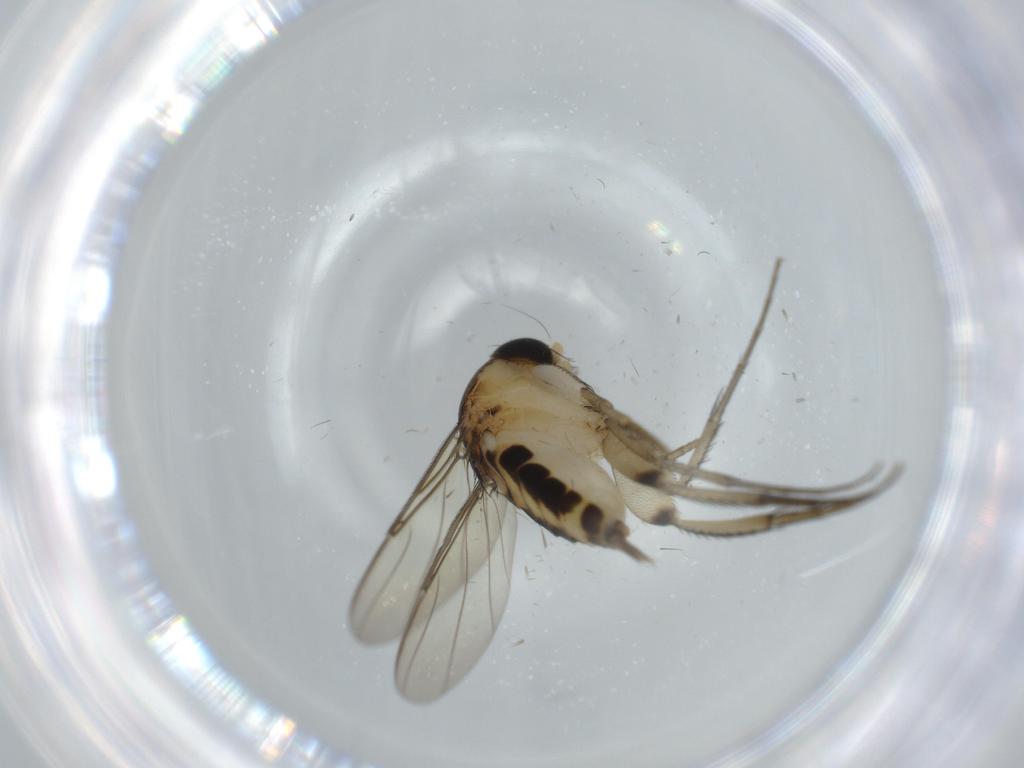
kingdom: Animalia
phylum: Arthropoda
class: Insecta
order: Diptera
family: Phoridae
